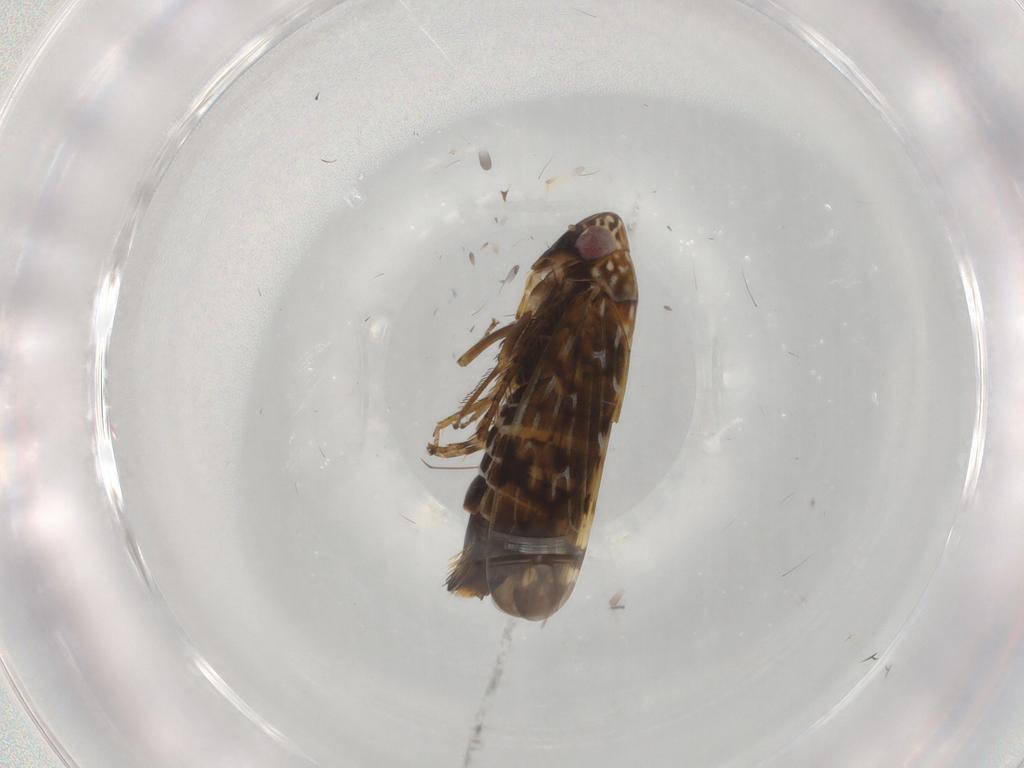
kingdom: Animalia
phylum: Arthropoda
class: Insecta
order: Hemiptera
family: Cicadellidae
